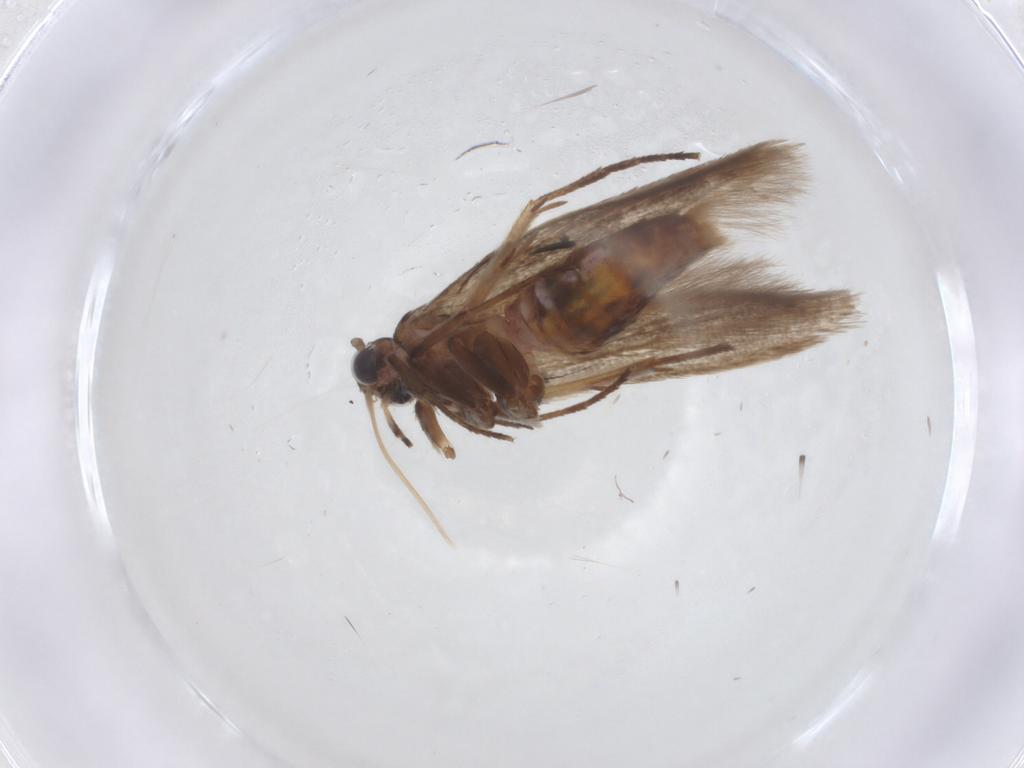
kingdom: Animalia
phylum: Arthropoda
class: Insecta
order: Lepidoptera
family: Cosmopterigidae
